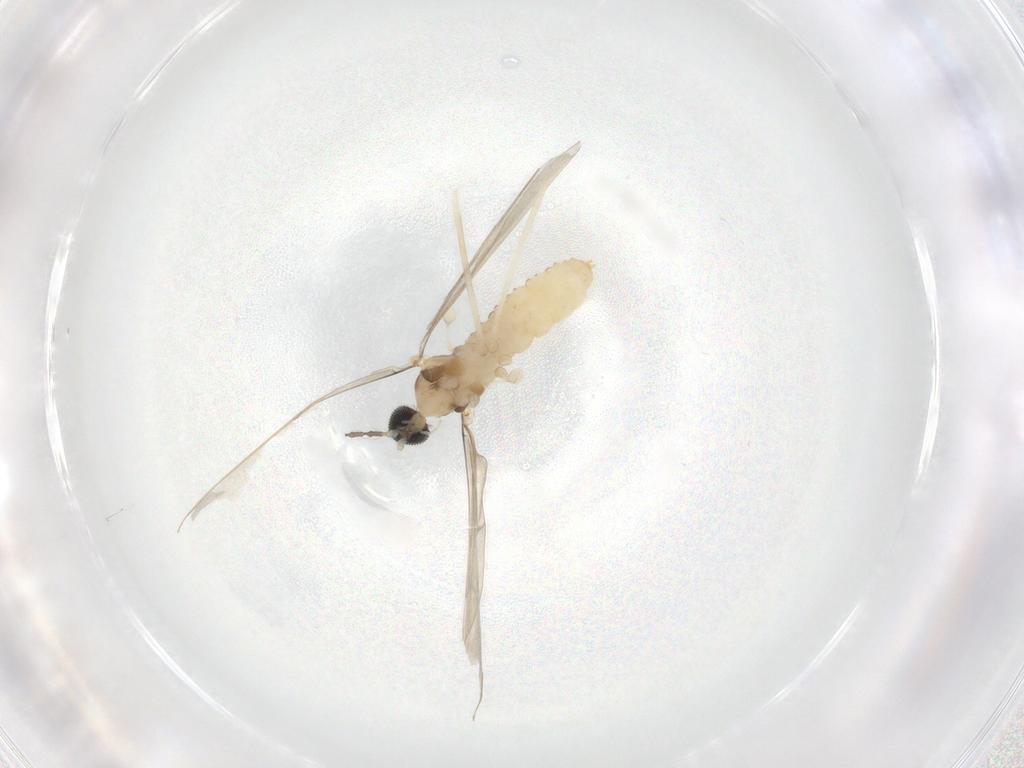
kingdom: Animalia
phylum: Arthropoda
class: Insecta
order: Diptera
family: Cecidomyiidae
